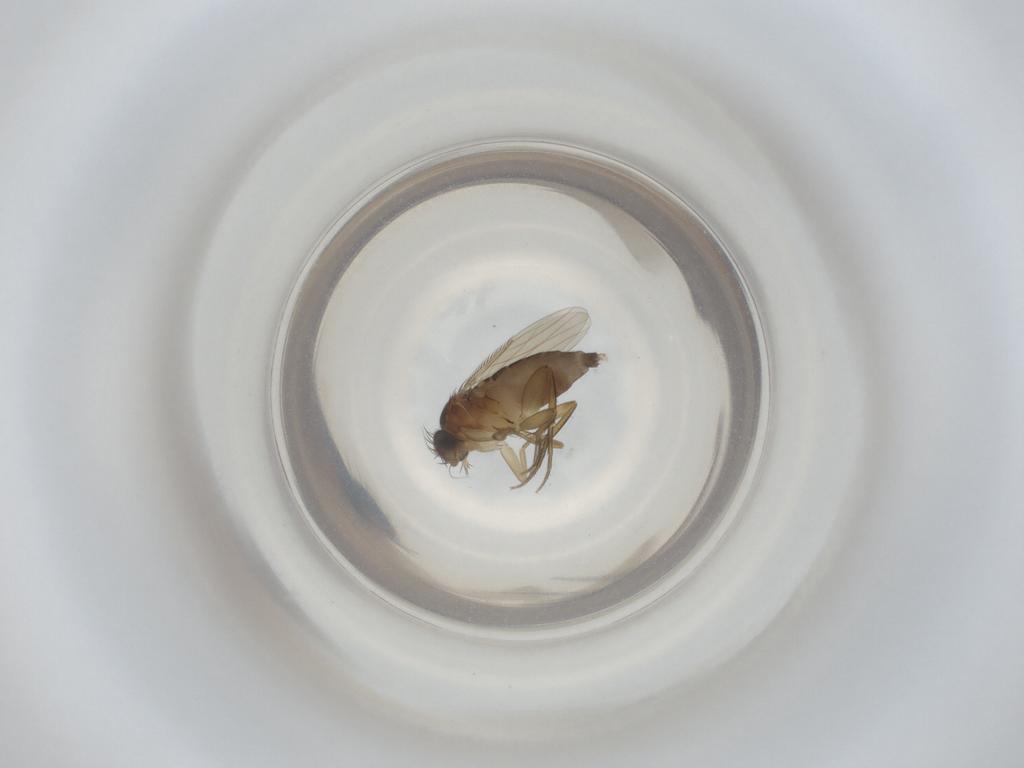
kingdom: Animalia
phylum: Arthropoda
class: Insecta
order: Diptera
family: Phoridae
